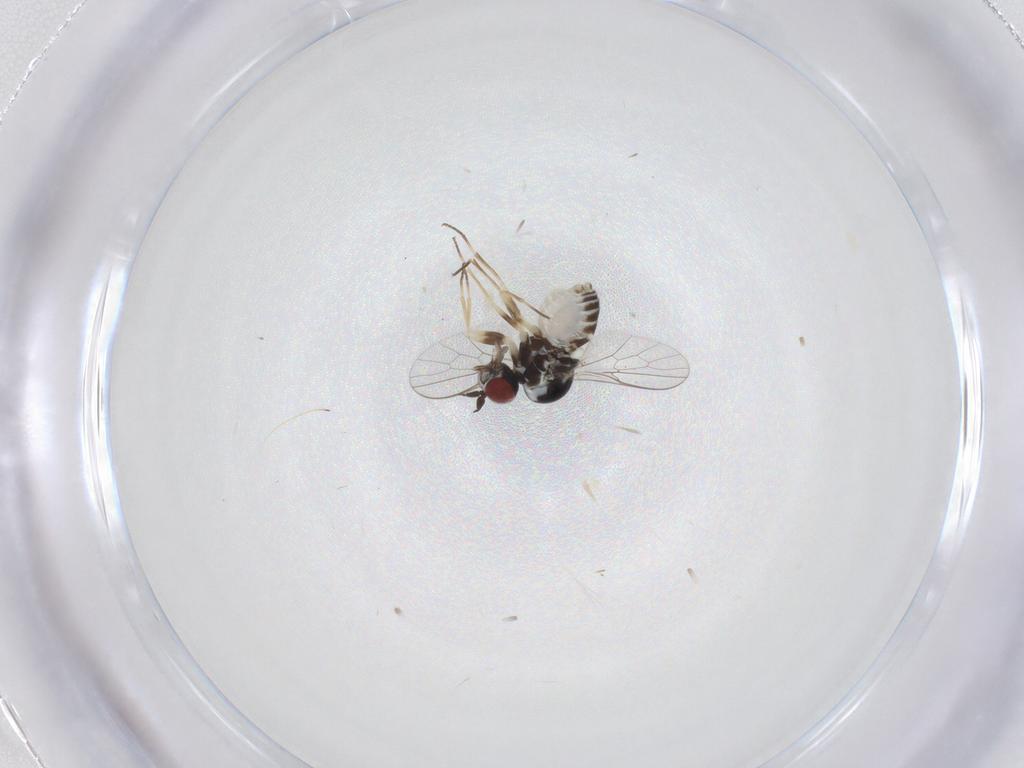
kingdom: Animalia
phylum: Arthropoda
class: Insecta
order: Diptera
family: Bombyliidae
